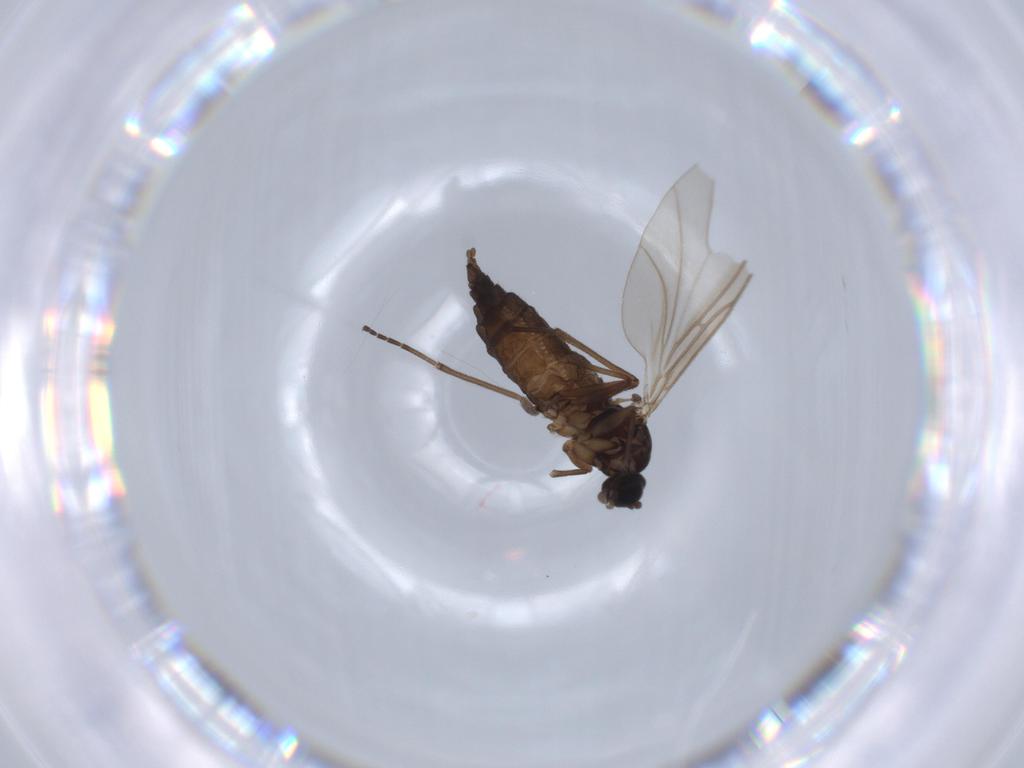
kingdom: Animalia
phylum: Arthropoda
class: Insecta
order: Diptera
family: Sciaridae
